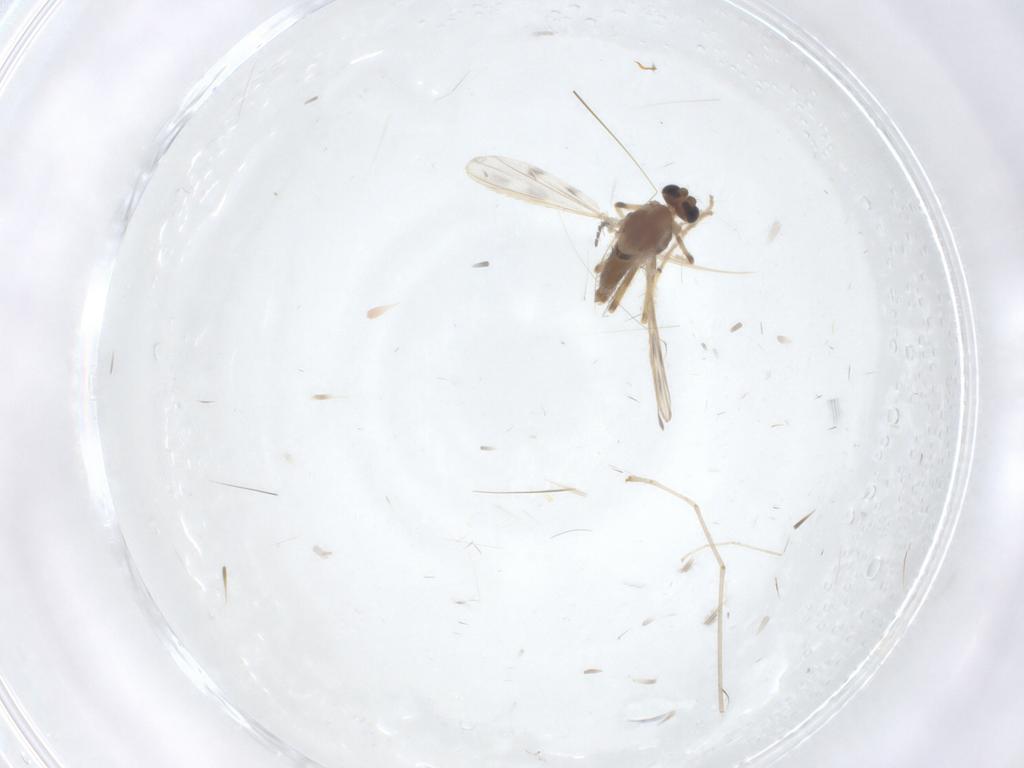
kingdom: Animalia
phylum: Arthropoda
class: Insecta
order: Diptera
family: Chironomidae
